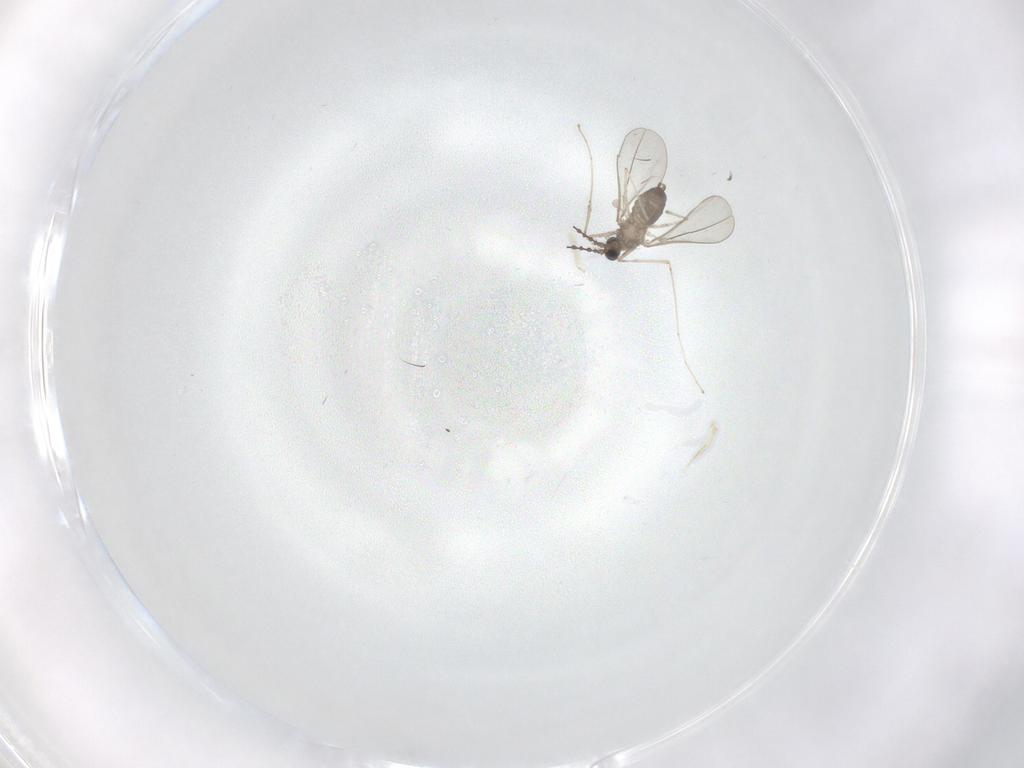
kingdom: Animalia
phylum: Arthropoda
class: Insecta
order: Diptera
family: Cecidomyiidae
